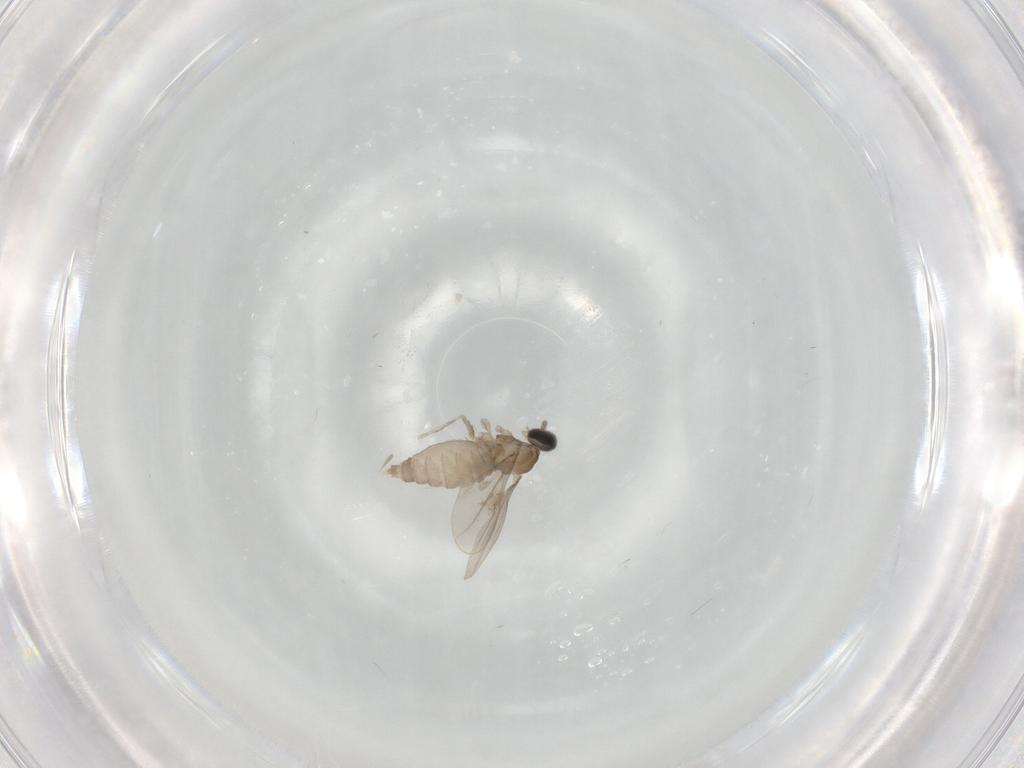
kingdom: Animalia
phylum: Arthropoda
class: Insecta
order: Diptera
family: Cecidomyiidae
